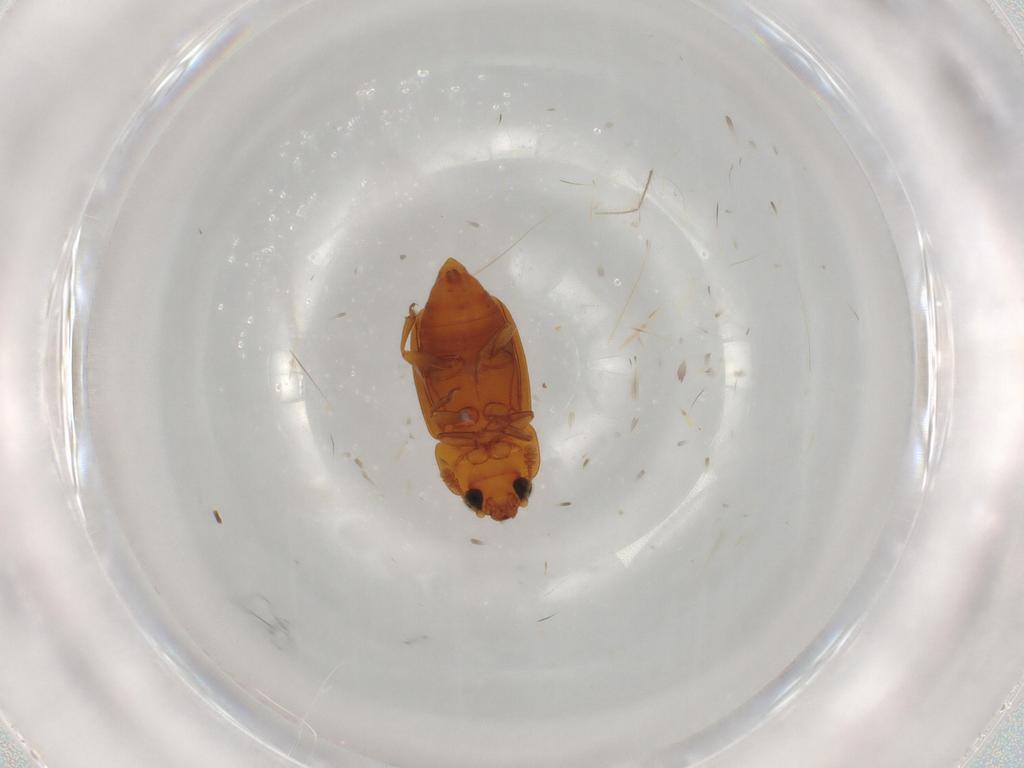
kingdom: Animalia
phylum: Arthropoda
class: Insecta
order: Coleoptera
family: Nitidulidae
